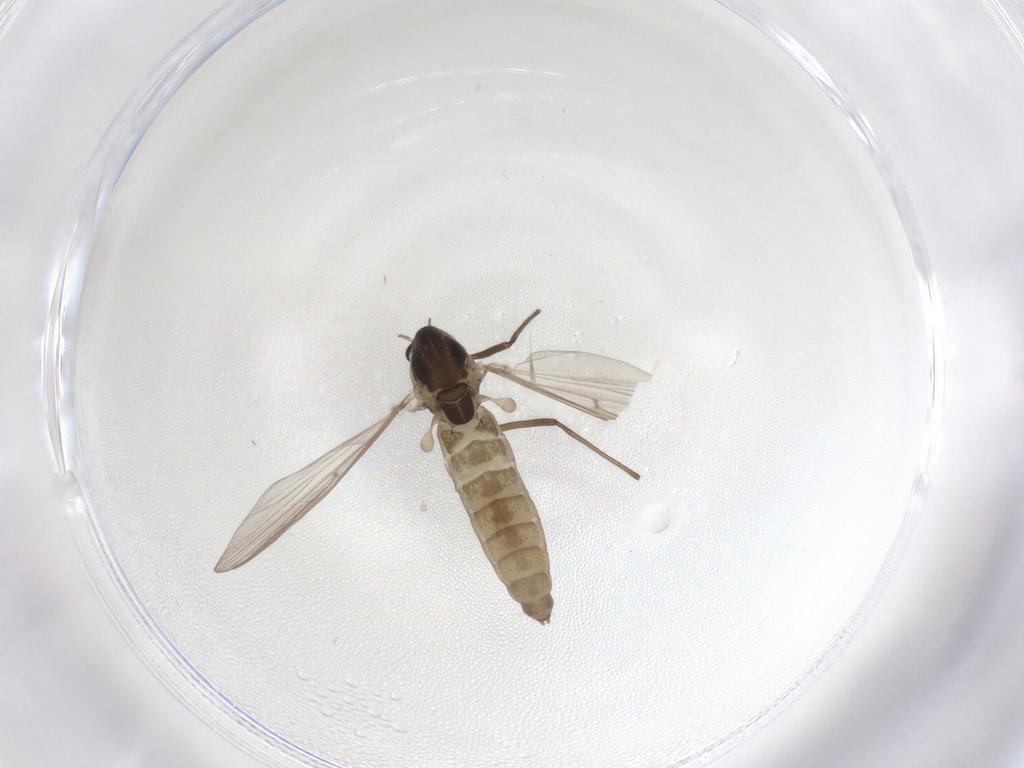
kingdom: Animalia
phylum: Arthropoda
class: Insecta
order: Diptera
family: Chironomidae
